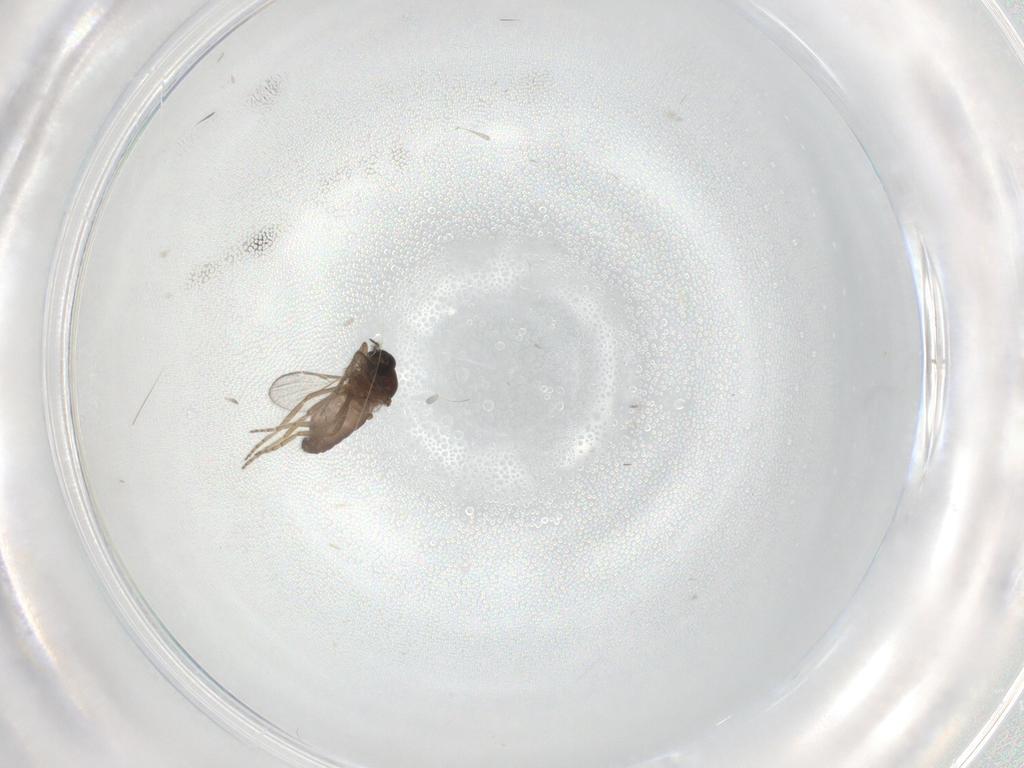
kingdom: Animalia
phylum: Arthropoda
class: Insecta
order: Diptera
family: Ceratopogonidae
